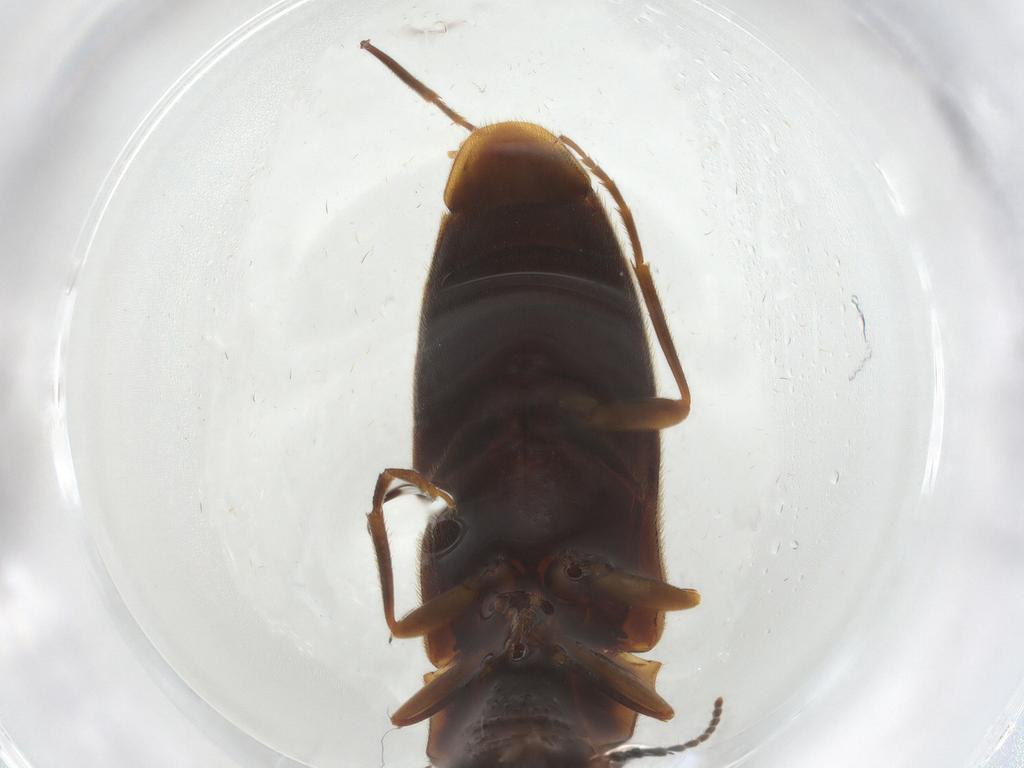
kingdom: Animalia
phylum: Arthropoda
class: Insecta
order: Coleoptera
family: Elateridae
